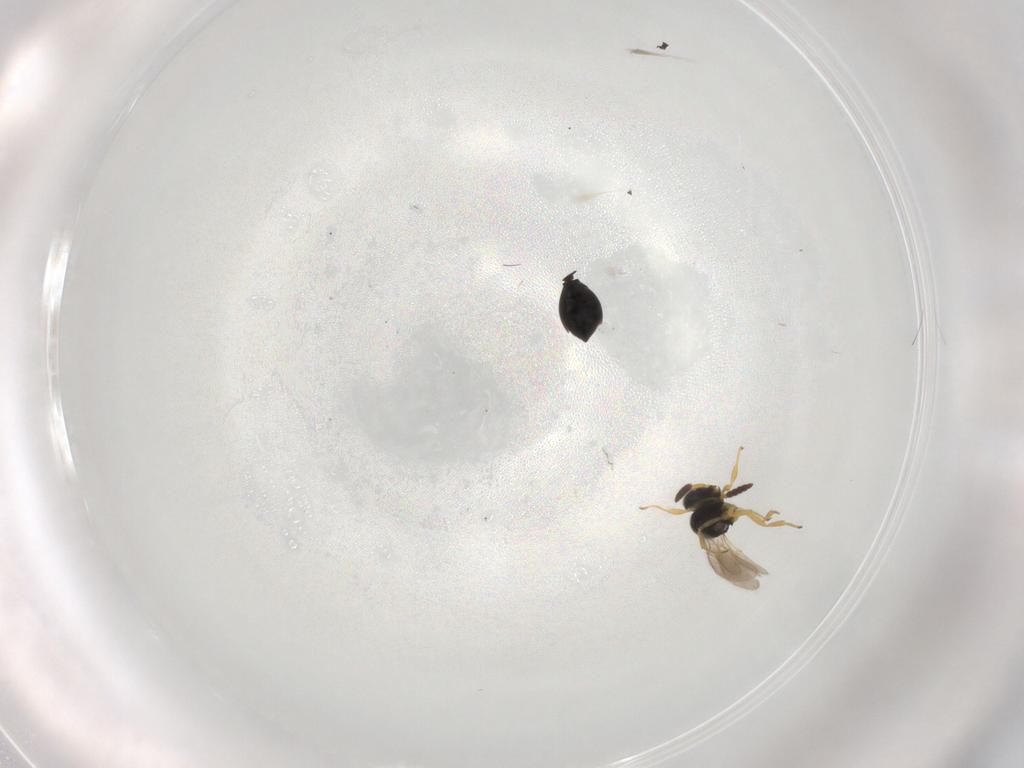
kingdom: Animalia
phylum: Arthropoda
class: Insecta
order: Hymenoptera
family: Scelionidae
